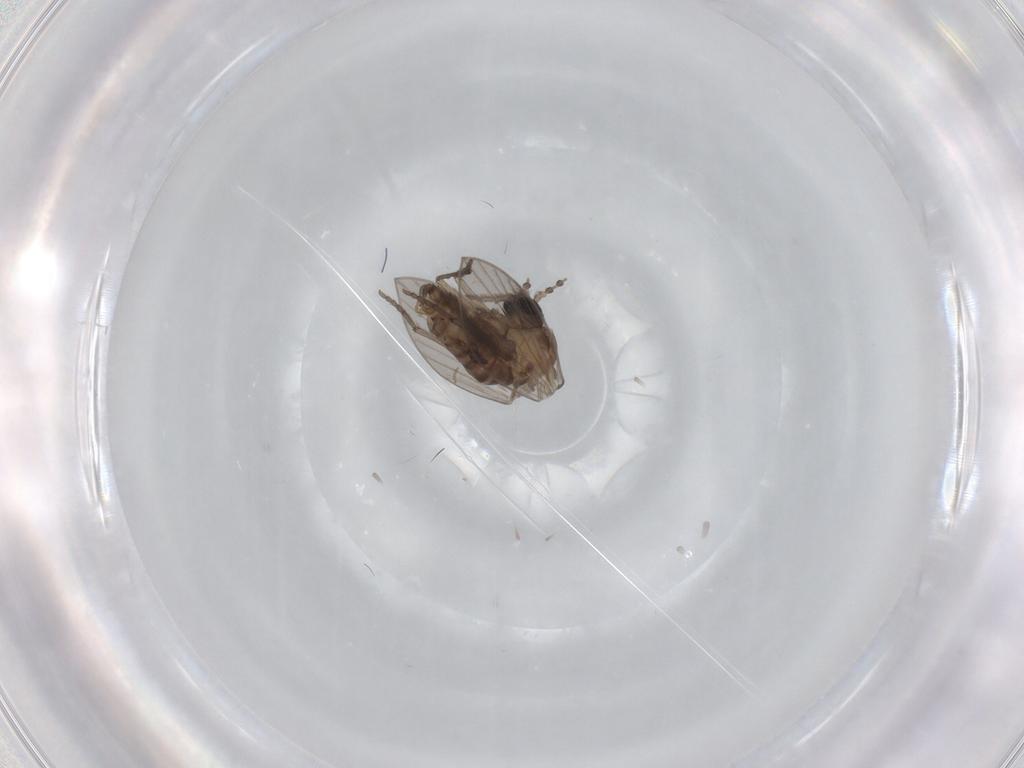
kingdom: Animalia
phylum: Arthropoda
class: Insecta
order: Diptera
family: Psychodidae
